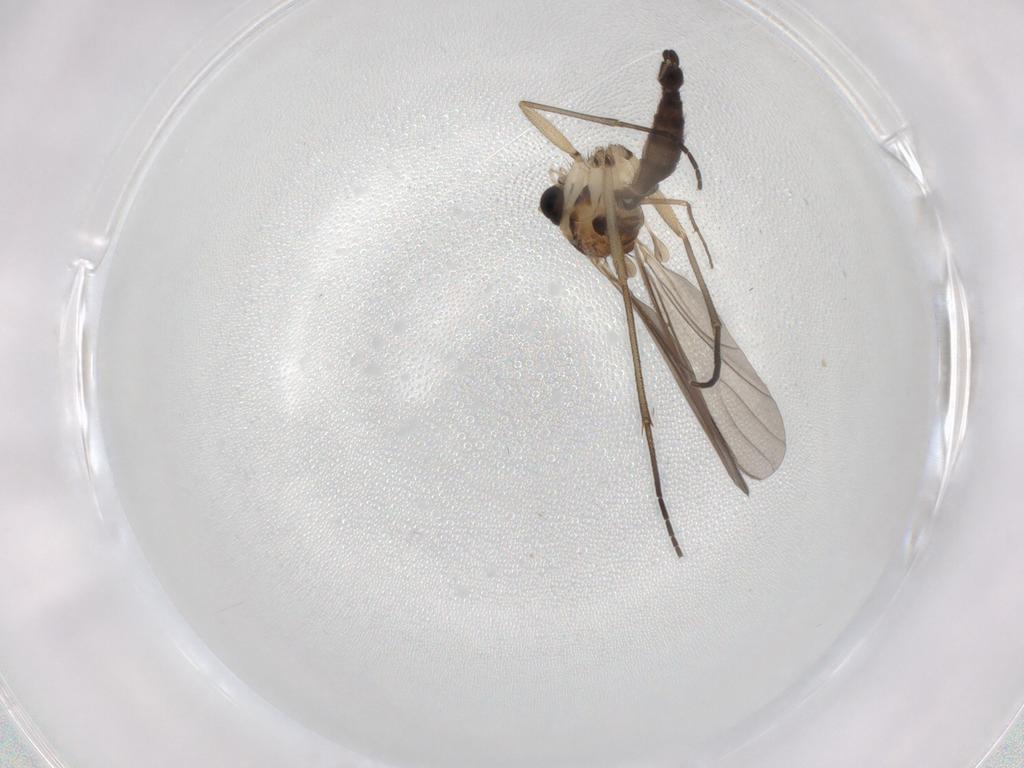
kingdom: Animalia
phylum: Arthropoda
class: Insecta
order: Diptera
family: Sciaridae
